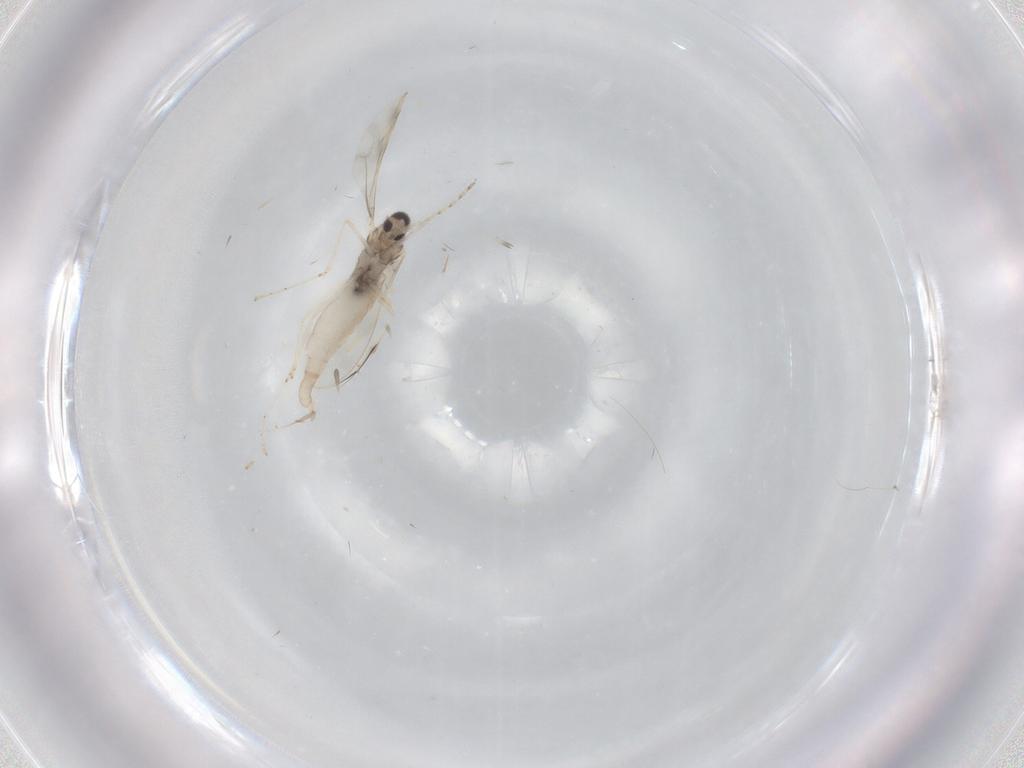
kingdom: Animalia
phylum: Arthropoda
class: Insecta
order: Diptera
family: Cecidomyiidae
